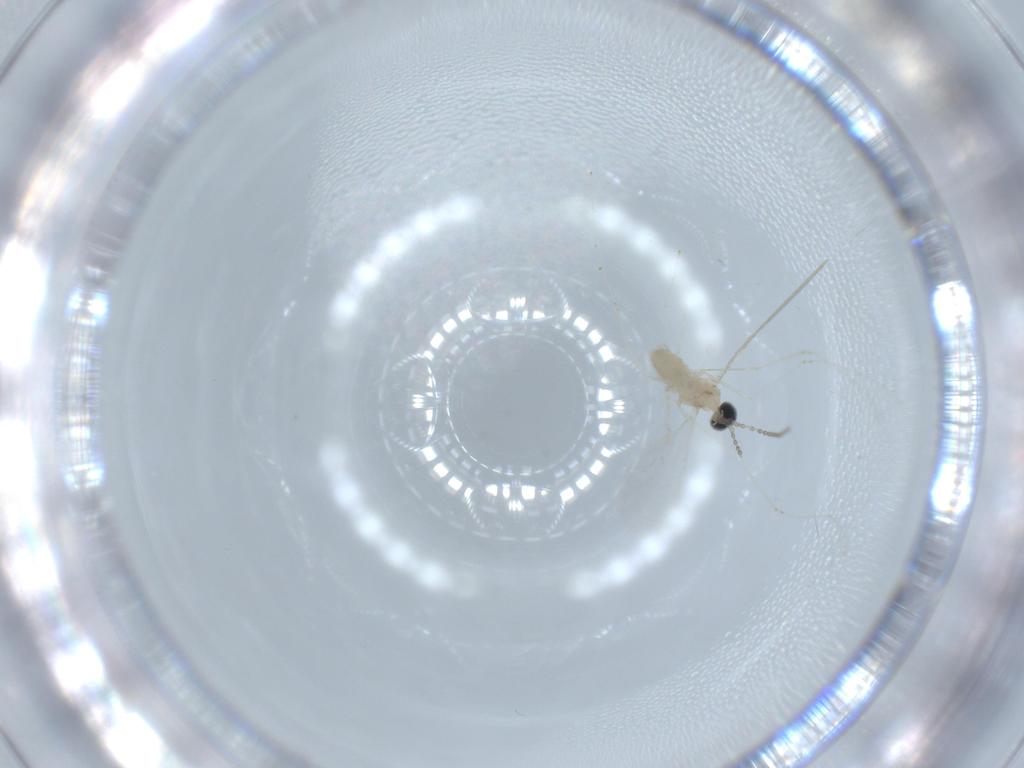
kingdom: Animalia
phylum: Arthropoda
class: Insecta
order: Diptera
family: Cecidomyiidae
